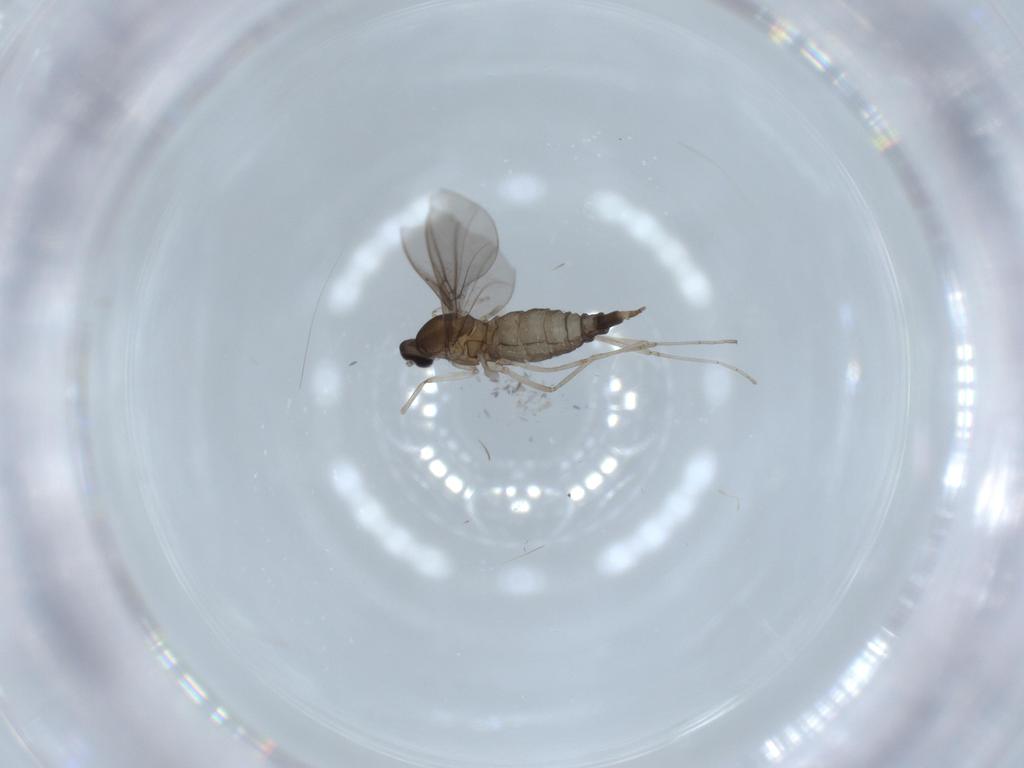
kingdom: Animalia
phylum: Arthropoda
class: Insecta
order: Diptera
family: Cecidomyiidae
